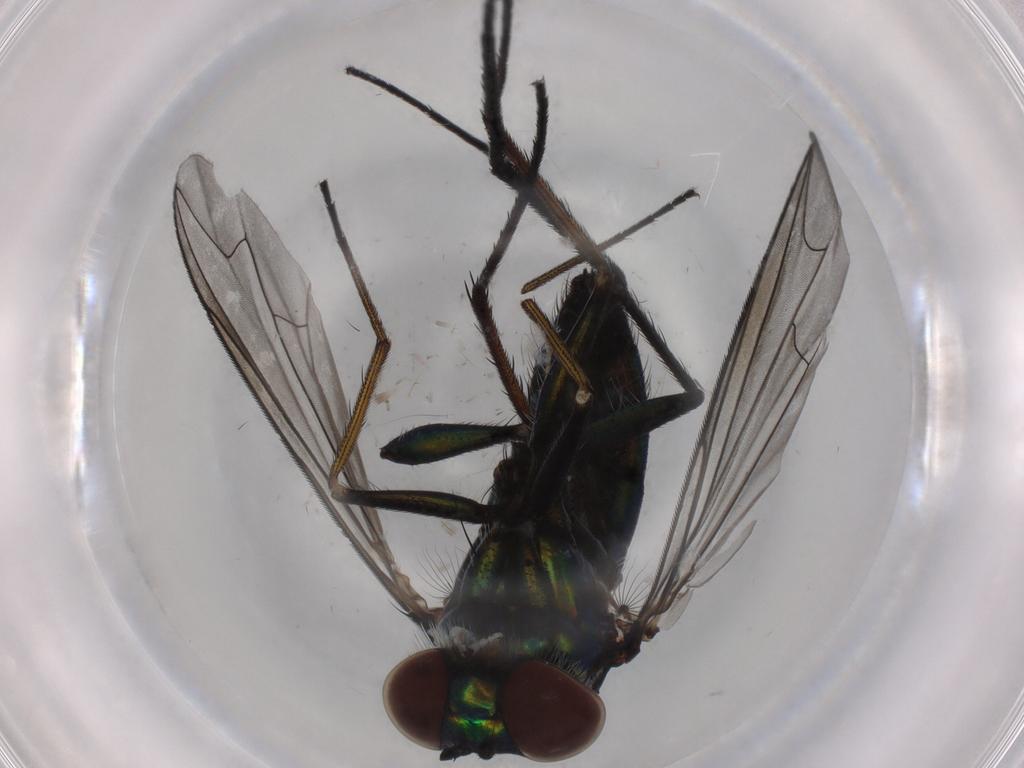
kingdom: Animalia
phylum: Arthropoda
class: Insecta
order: Diptera
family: Dolichopodidae
